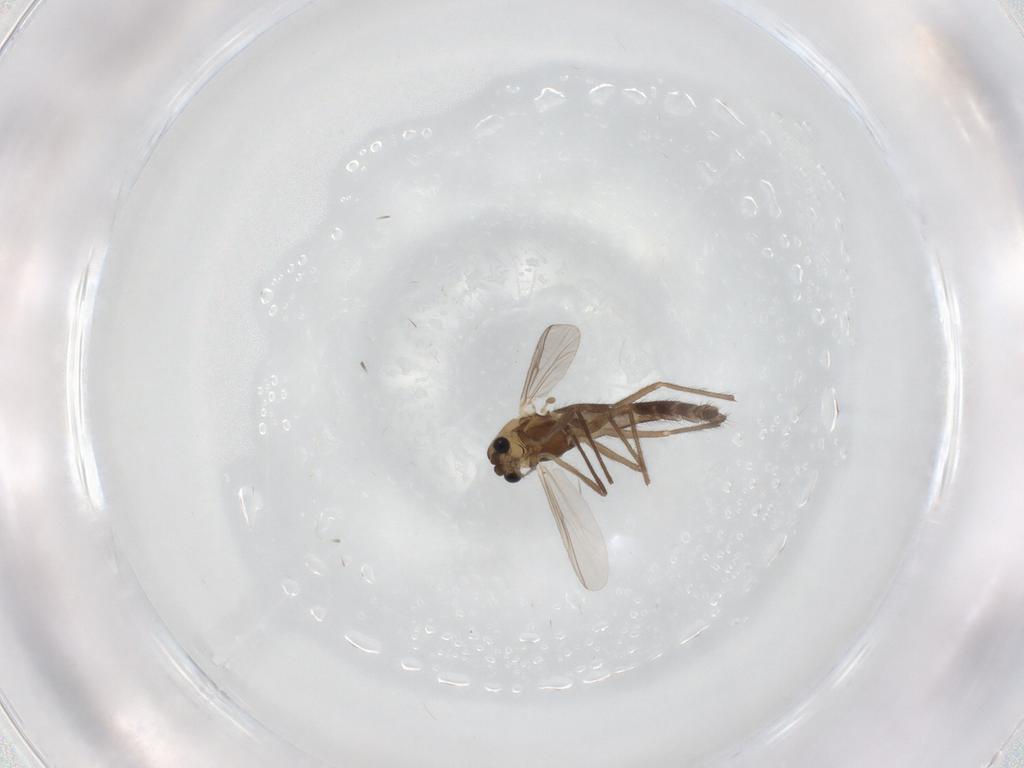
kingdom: Animalia
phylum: Arthropoda
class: Insecta
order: Diptera
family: Chironomidae
